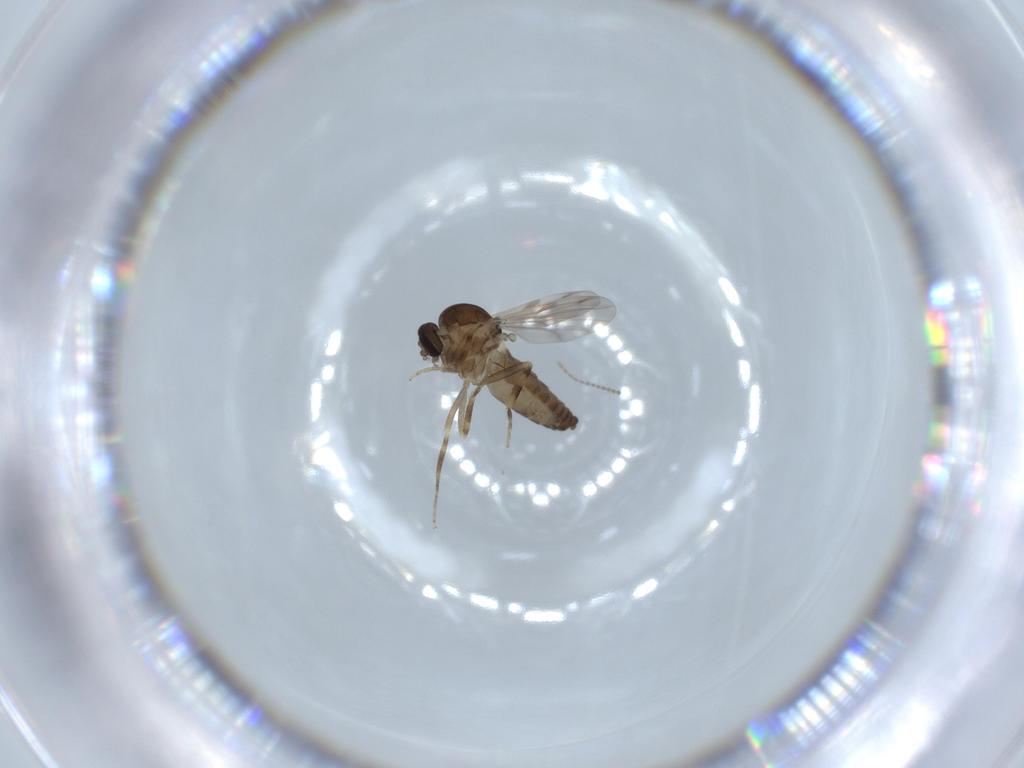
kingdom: Animalia
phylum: Arthropoda
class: Insecta
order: Diptera
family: Ceratopogonidae
